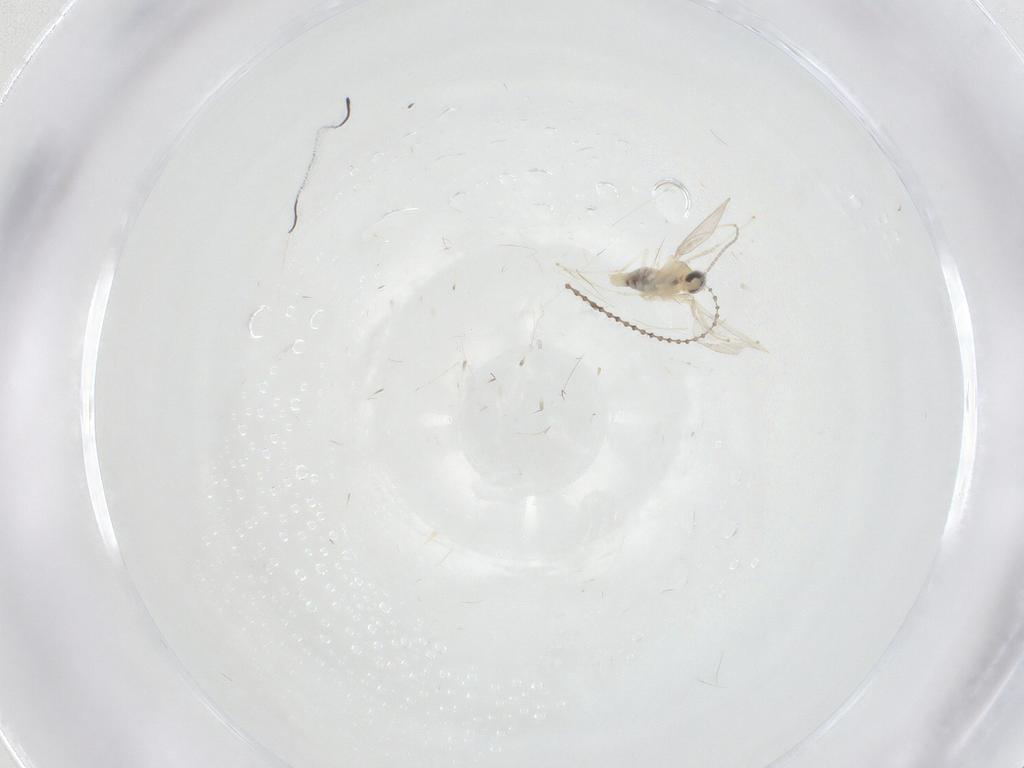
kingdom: Animalia
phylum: Arthropoda
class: Insecta
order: Diptera
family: Cecidomyiidae
